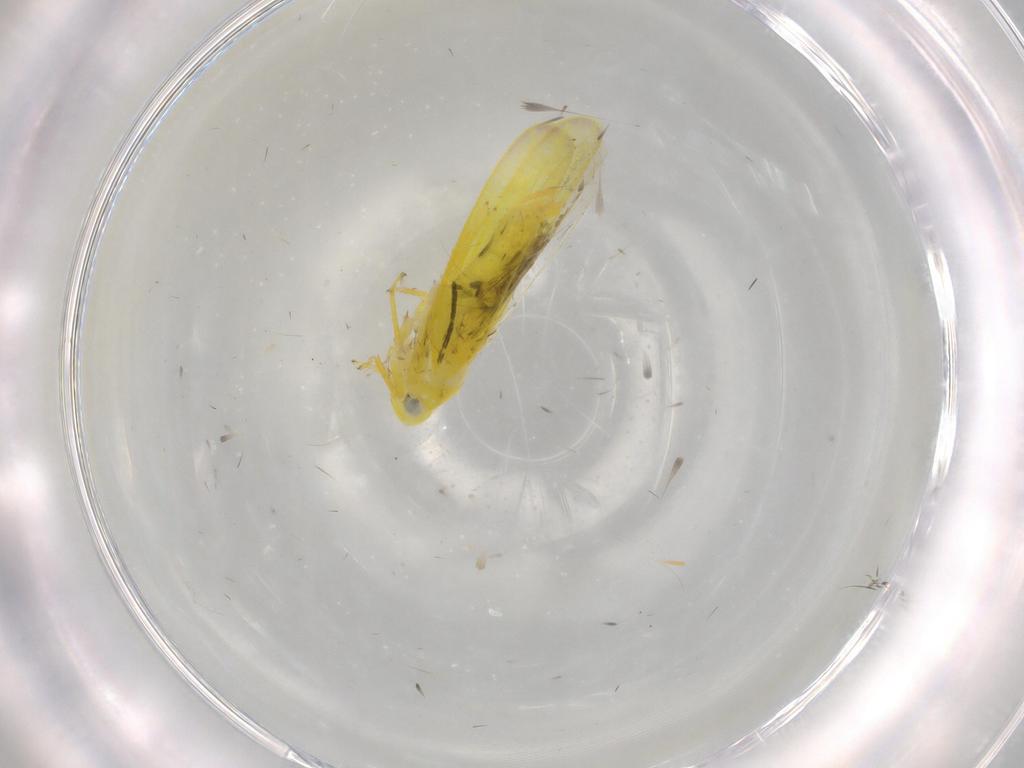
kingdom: Animalia
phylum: Arthropoda
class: Insecta
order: Hemiptera
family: Cicadellidae
